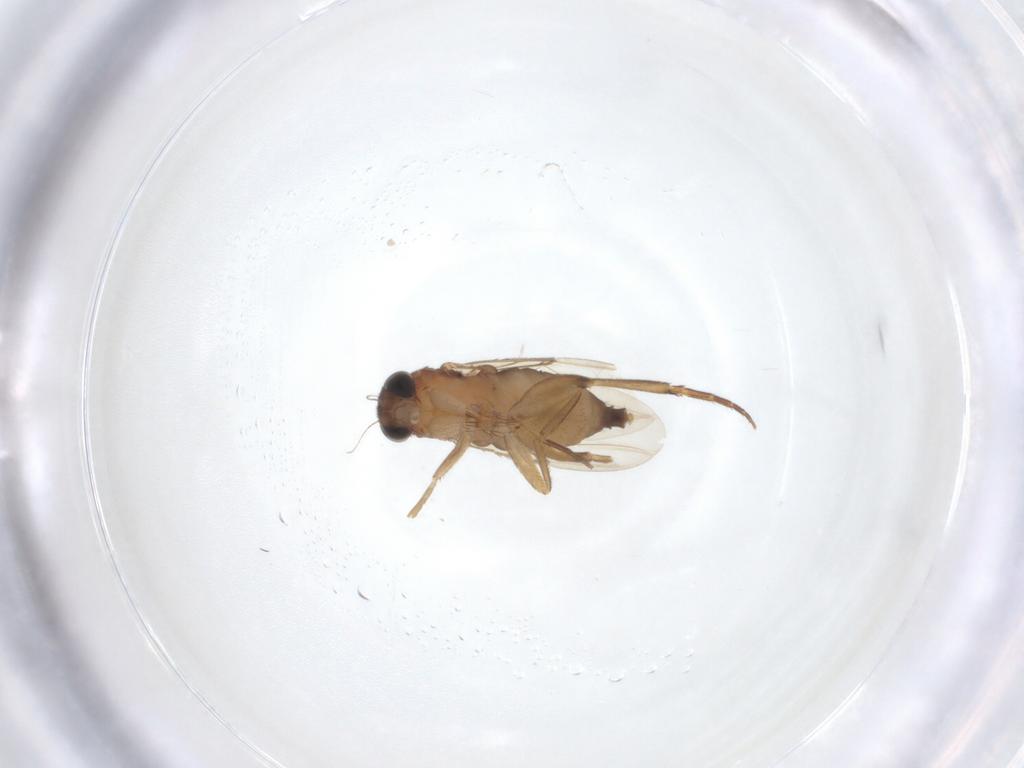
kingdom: Animalia
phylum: Arthropoda
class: Insecta
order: Diptera
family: Phoridae
